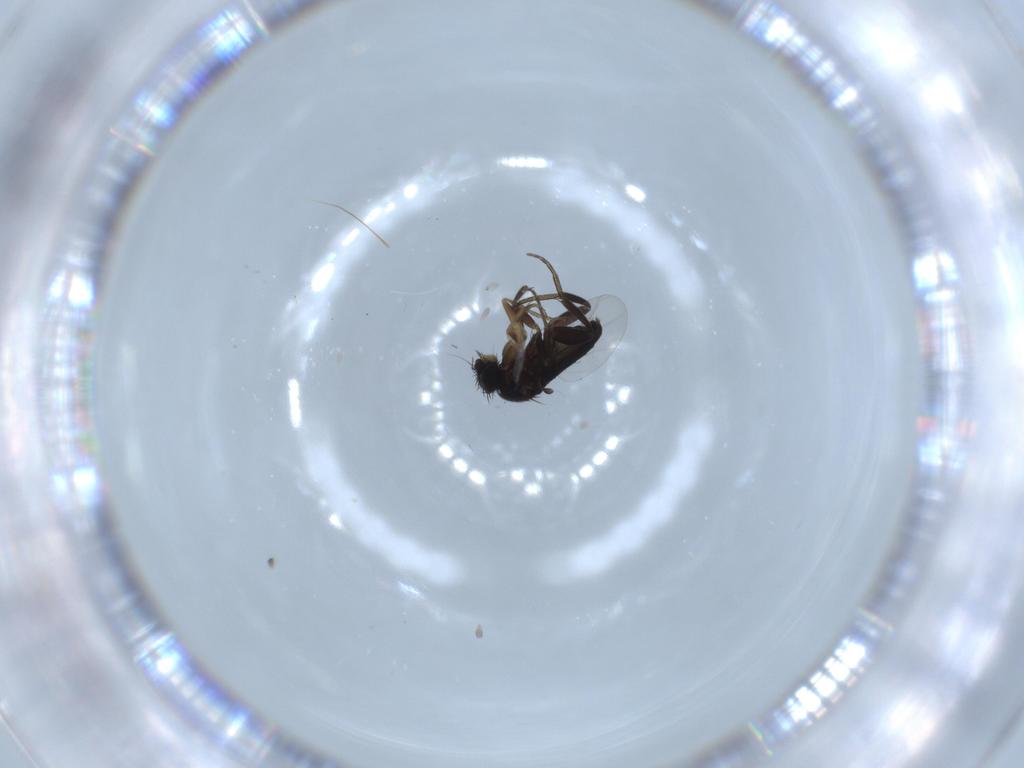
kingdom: Animalia
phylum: Arthropoda
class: Insecta
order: Diptera
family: Phoridae
